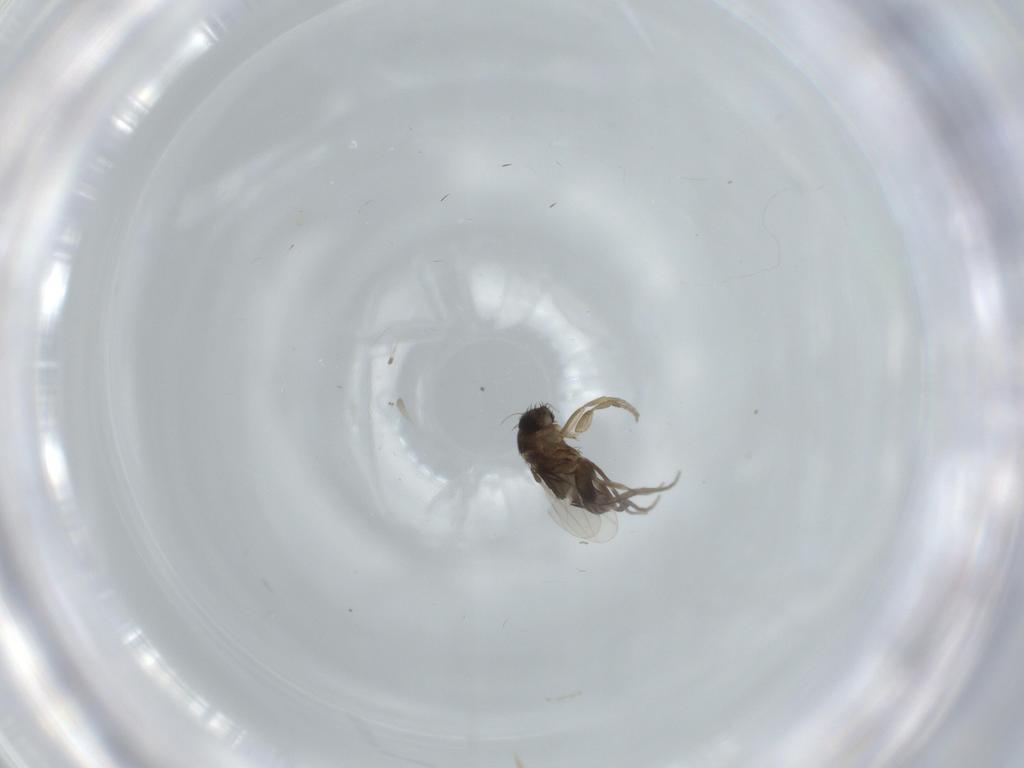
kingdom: Animalia
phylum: Arthropoda
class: Insecta
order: Diptera
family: Phoridae
